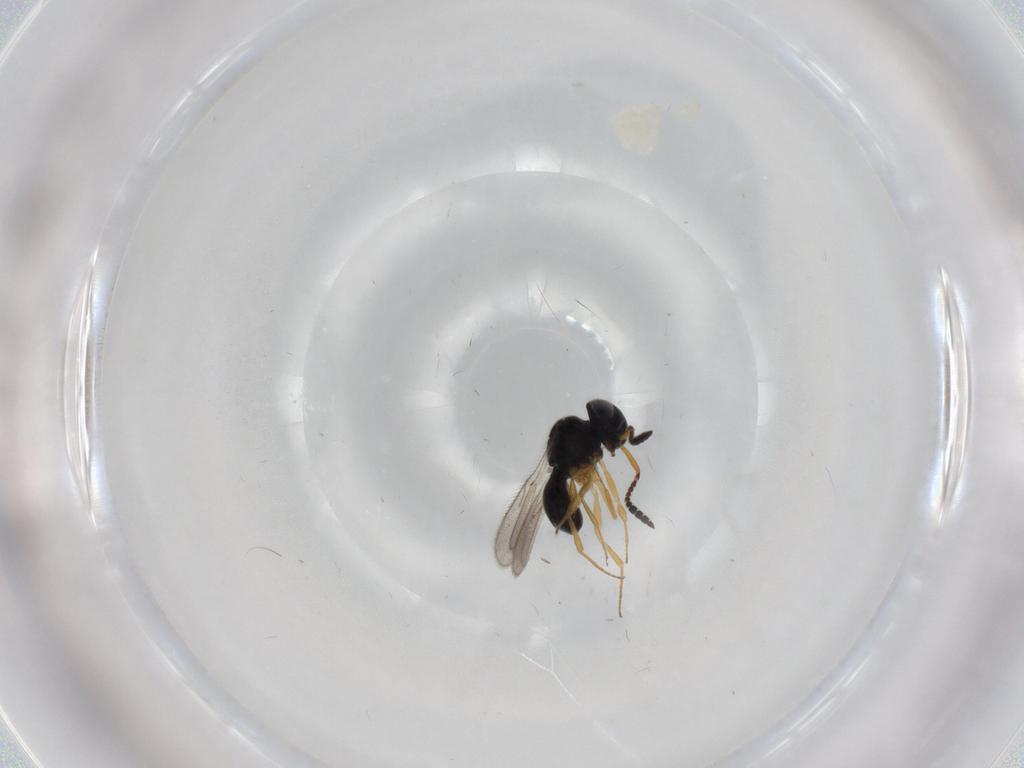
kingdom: Animalia
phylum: Arthropoda
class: Insecta
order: Hymenoptera
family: Scelionidae
